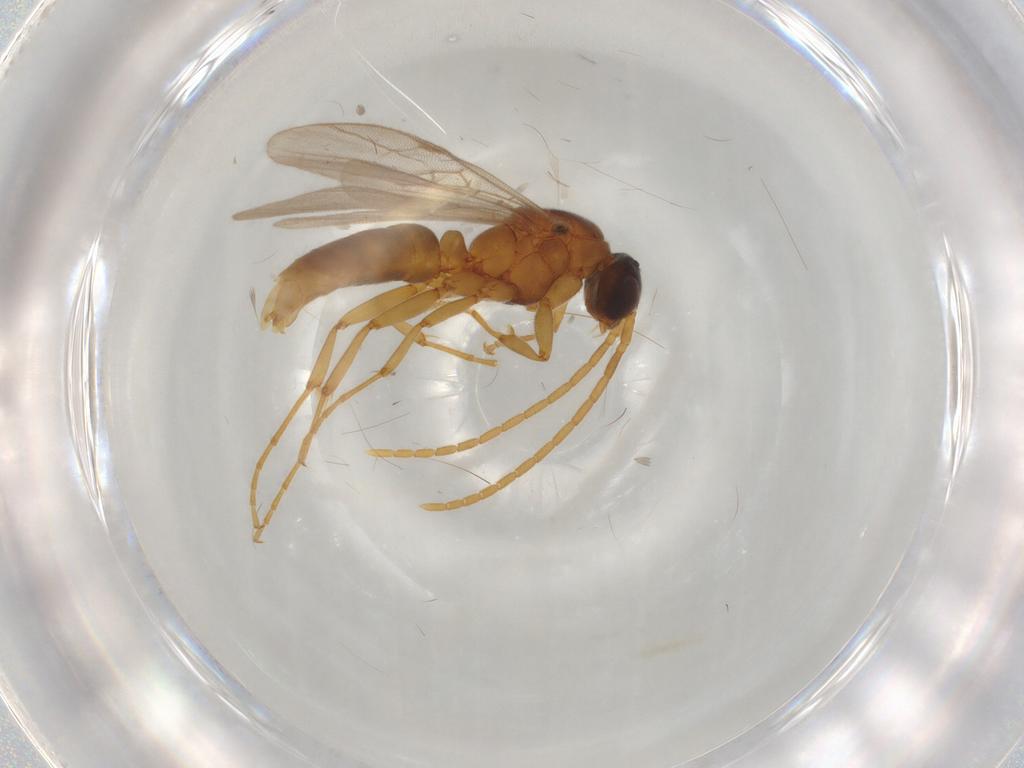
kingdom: Animalia
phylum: Arthropoda
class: Insecta
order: Hymenoptera
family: Formicidae
